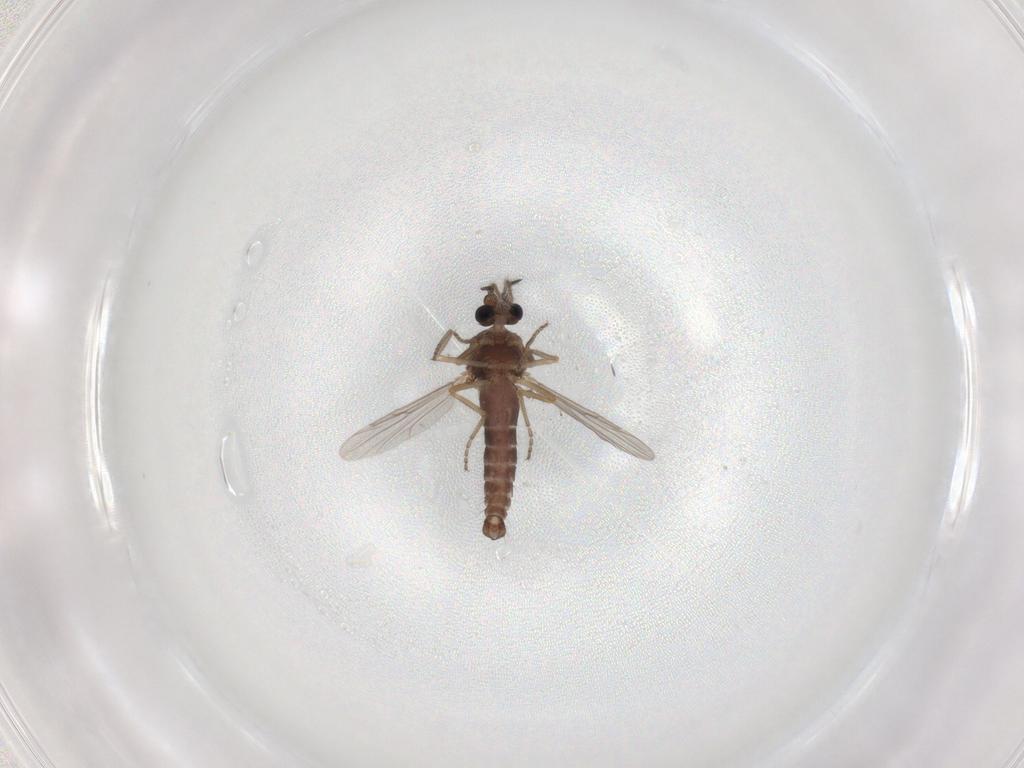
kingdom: Animalia
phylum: Arthropoda
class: Insecta
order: Diptera
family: Ceratopogonidae
